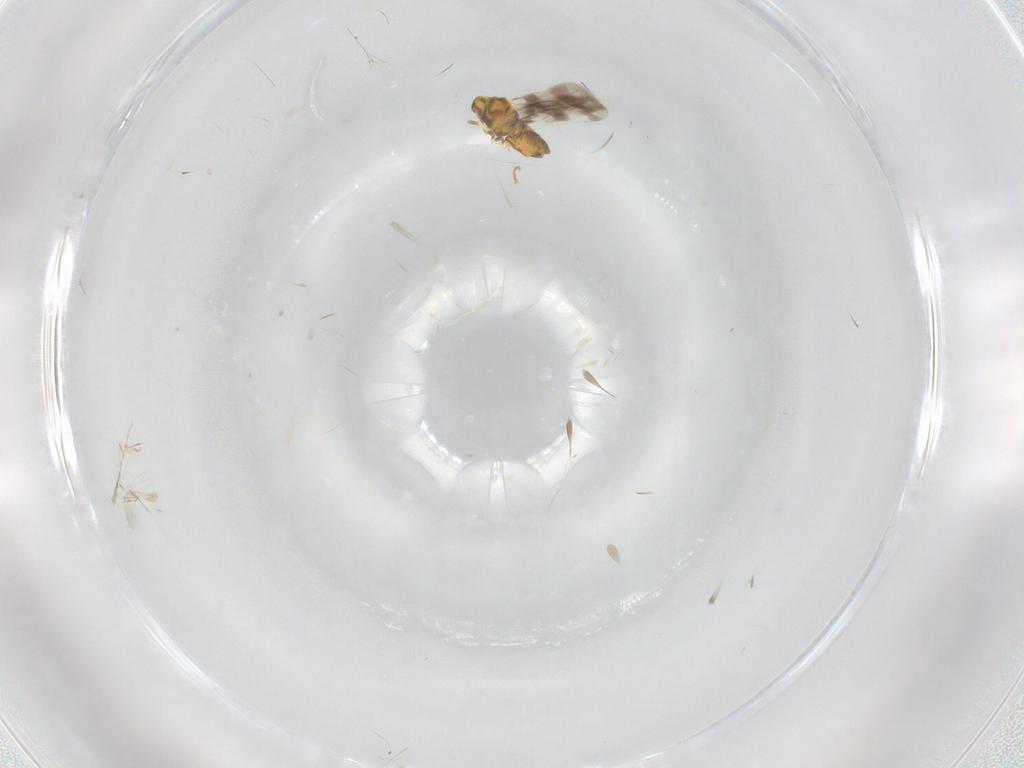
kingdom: Animalia
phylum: Arthropoda
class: Insecta
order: Hemiptera
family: Aleyrodidae
